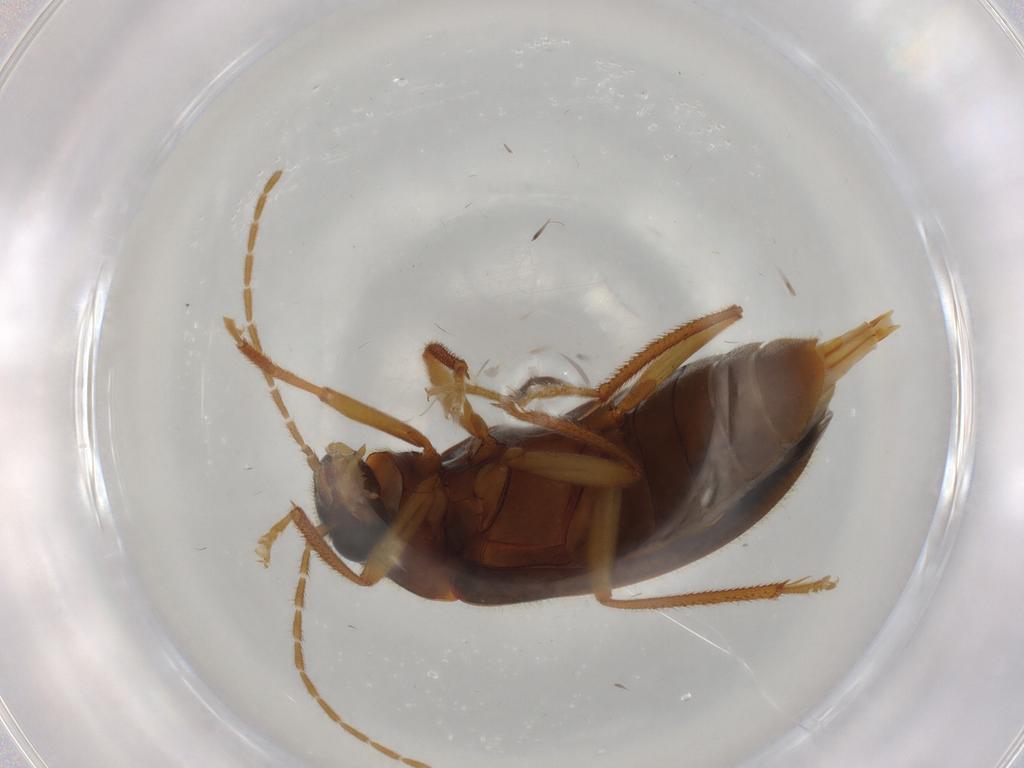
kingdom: Animalia
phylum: Arthropoda
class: Insecta
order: Coleoptera
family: Ptilodactylidae
